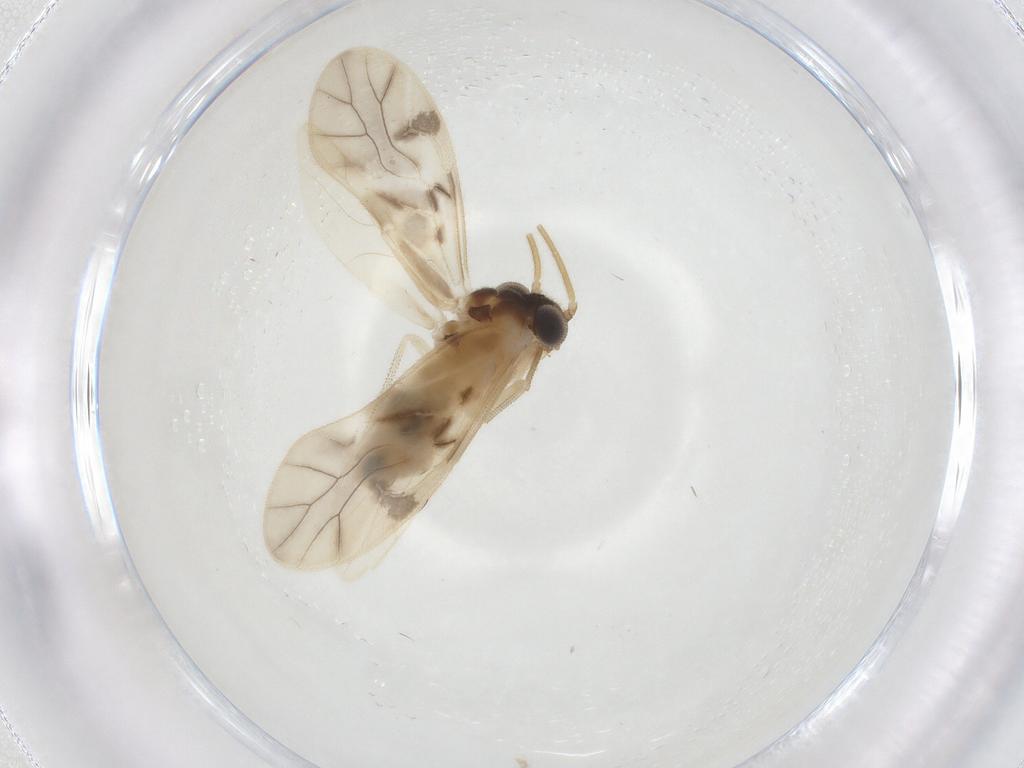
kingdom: Animalia
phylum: Arthropoda
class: Insecta
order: Psocodea
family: Caeciliusidae
